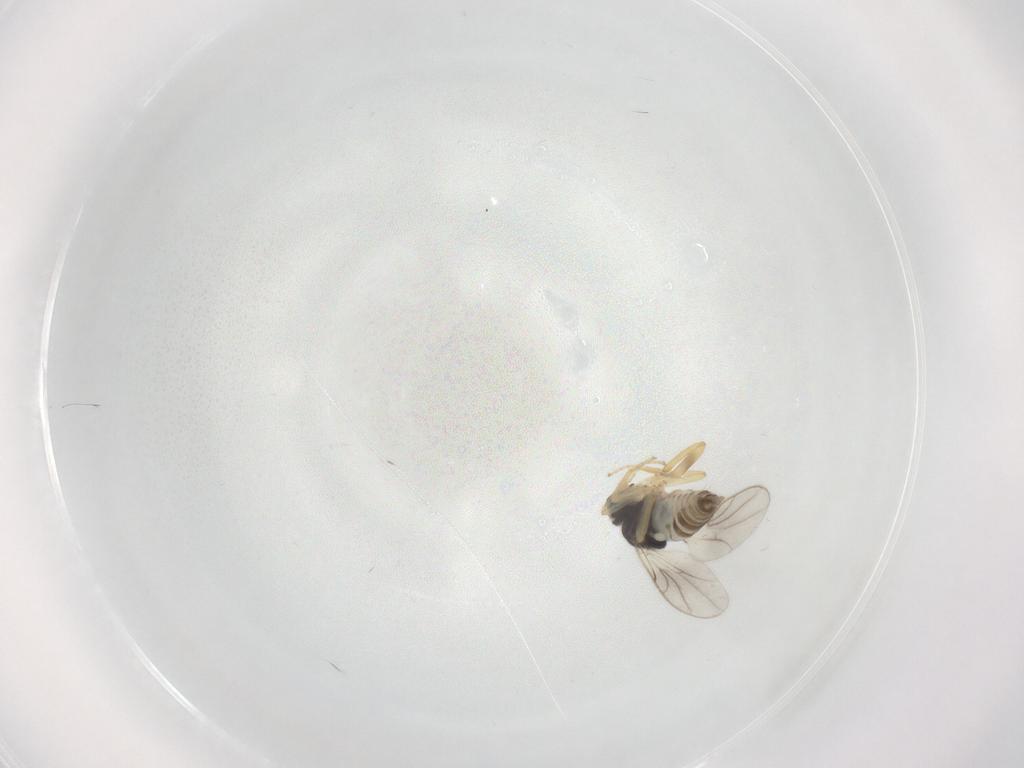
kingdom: Animalia
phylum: Arthropoda
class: Insecta
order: Diptera
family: Hybotidae
